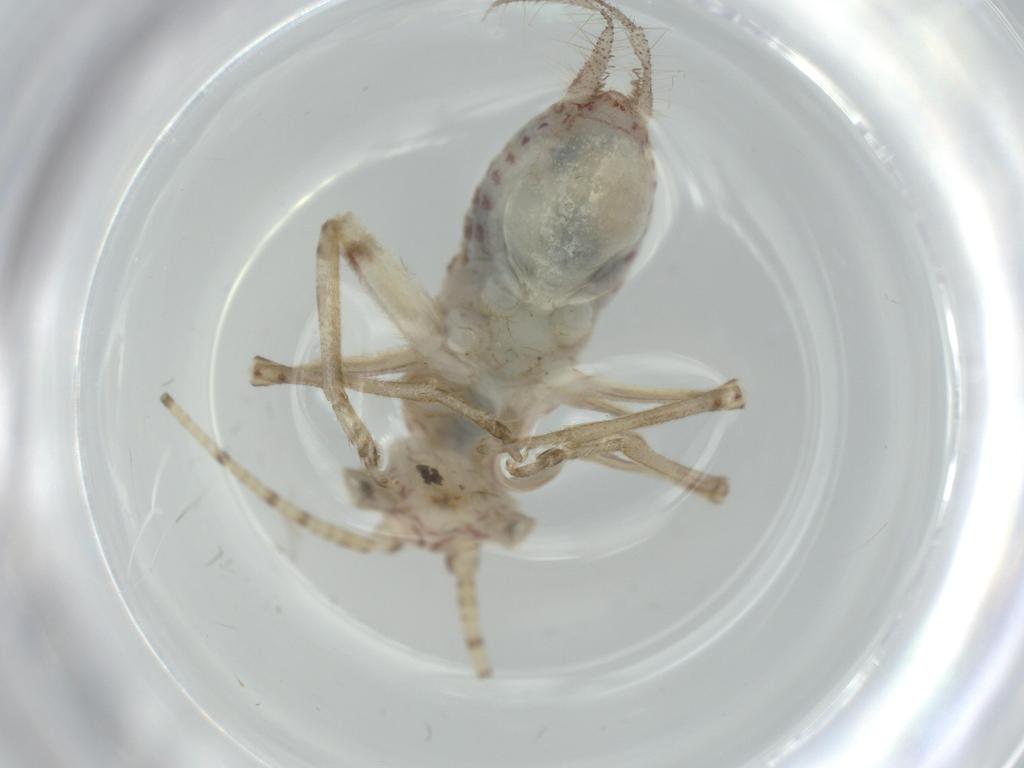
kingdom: Animalia
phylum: Arthropoda
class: Insecta
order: Orthoptera
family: Trigonidiidae
